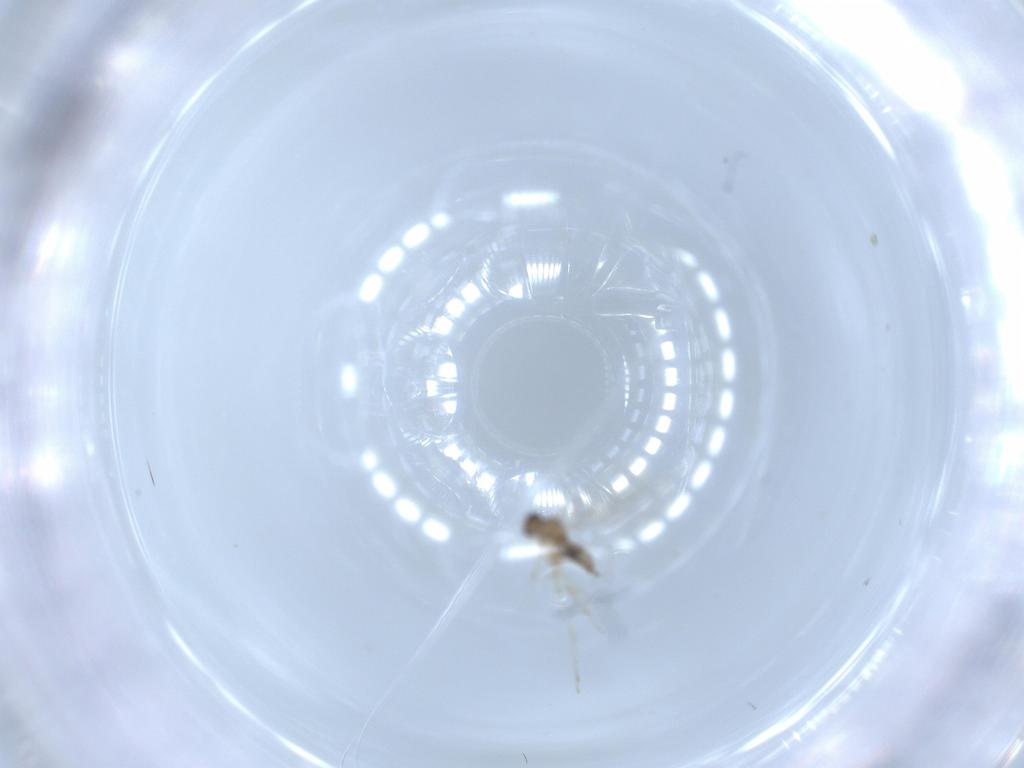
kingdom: Animalia
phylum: Arthropoda
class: Insecta
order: Diptera
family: Cecidomyiidae
